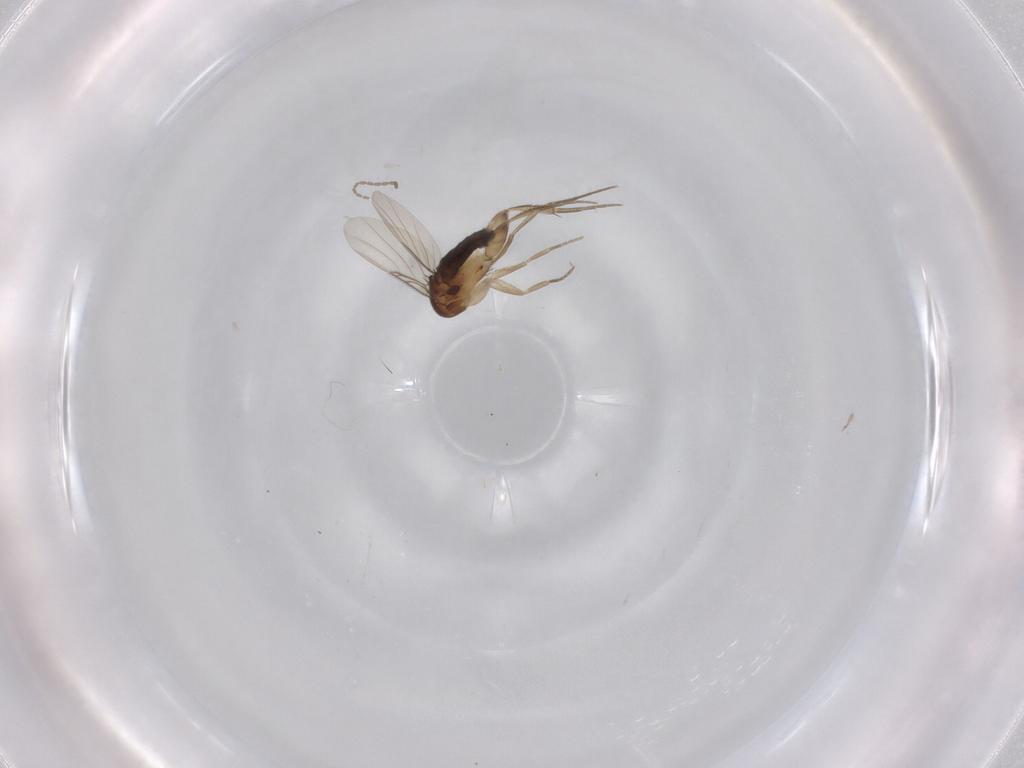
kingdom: Animalia
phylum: Arthropoda
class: Insecta
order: Diptera
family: Phoridae
